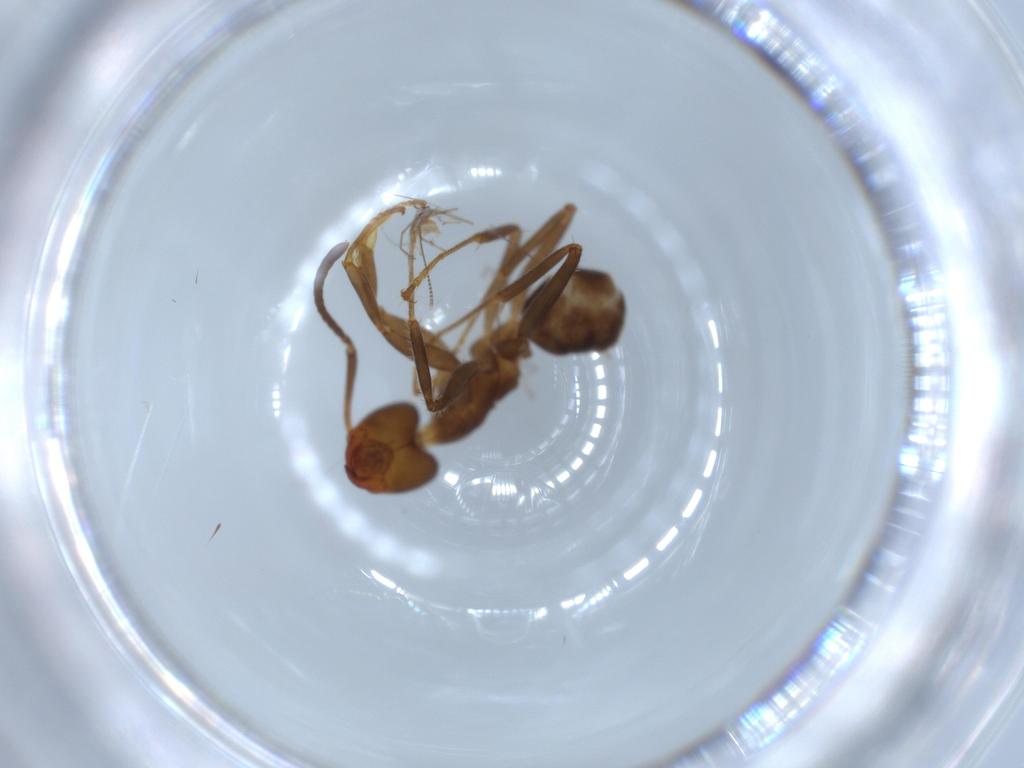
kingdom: Animalia
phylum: Arthropoda
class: Insecta
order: Hymenoptera
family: Formicidae
